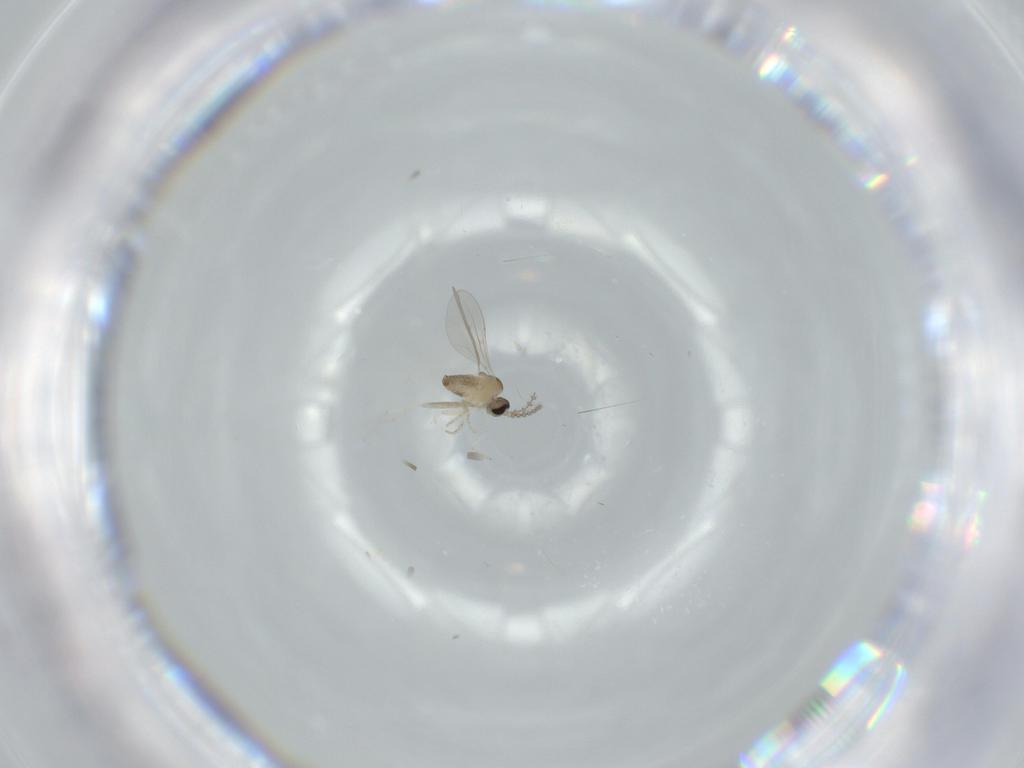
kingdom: Animalia
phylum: Arthropoda
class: Insecta
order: Diptera
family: Cecidomyiidae
